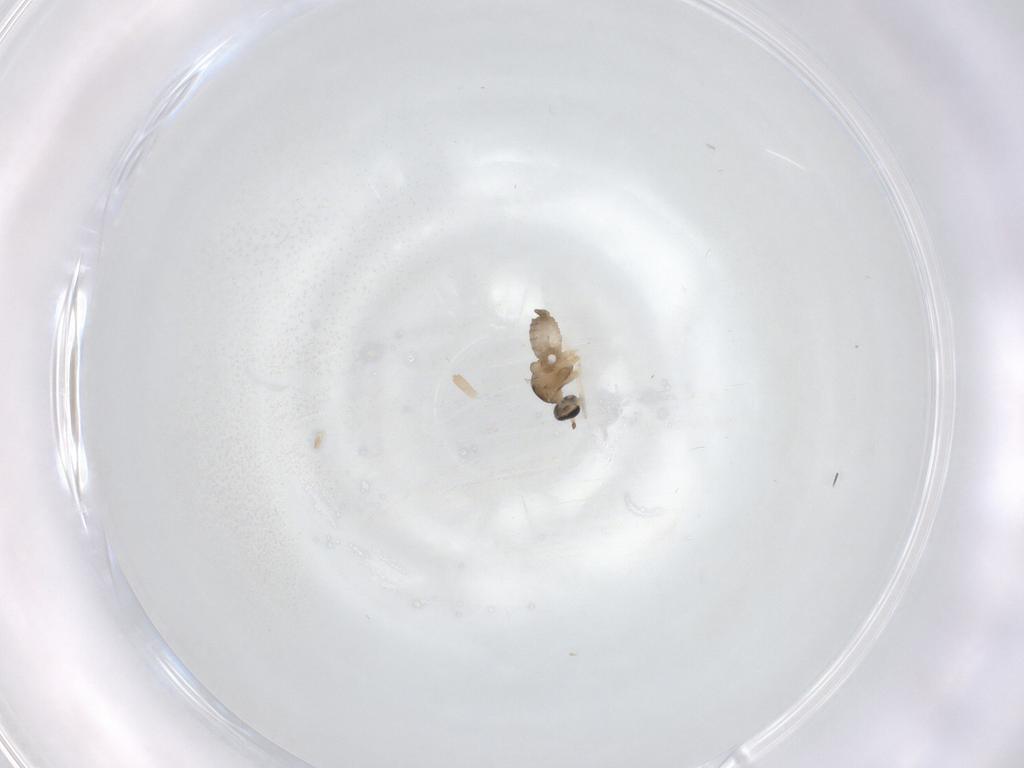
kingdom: Animalia
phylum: Arthropoda
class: Insecta
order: Diptera
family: Cecidomyiidae
